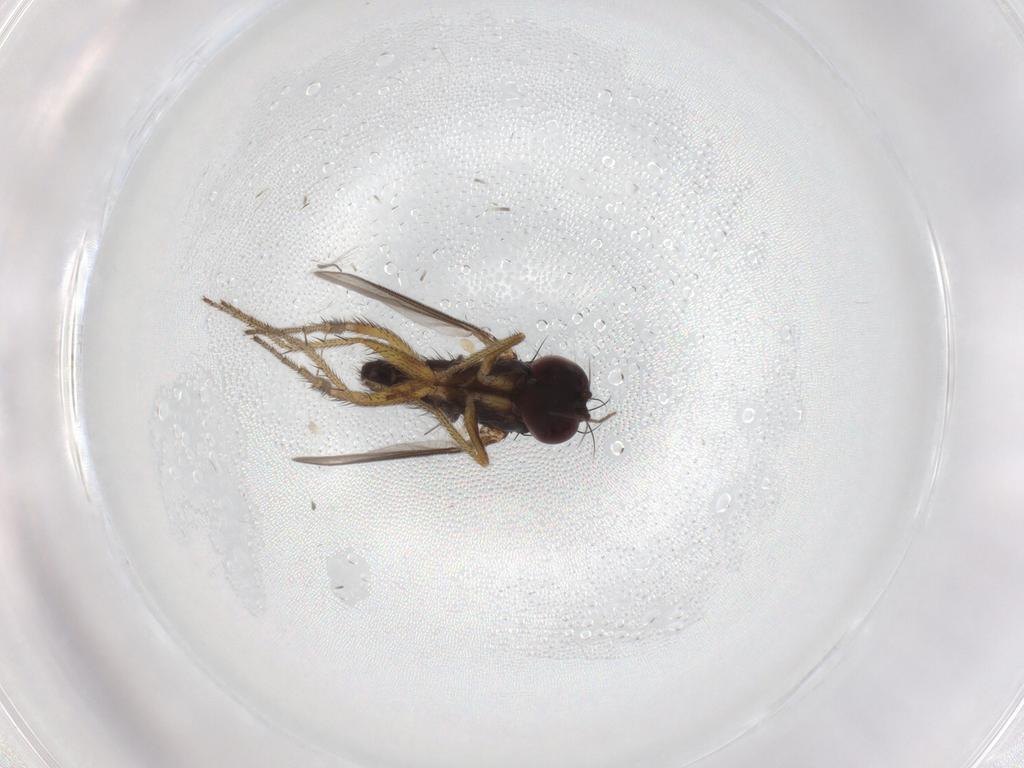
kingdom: Animalia
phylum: Arthropoda
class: Insecta
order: Diptera
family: Chironomidae
